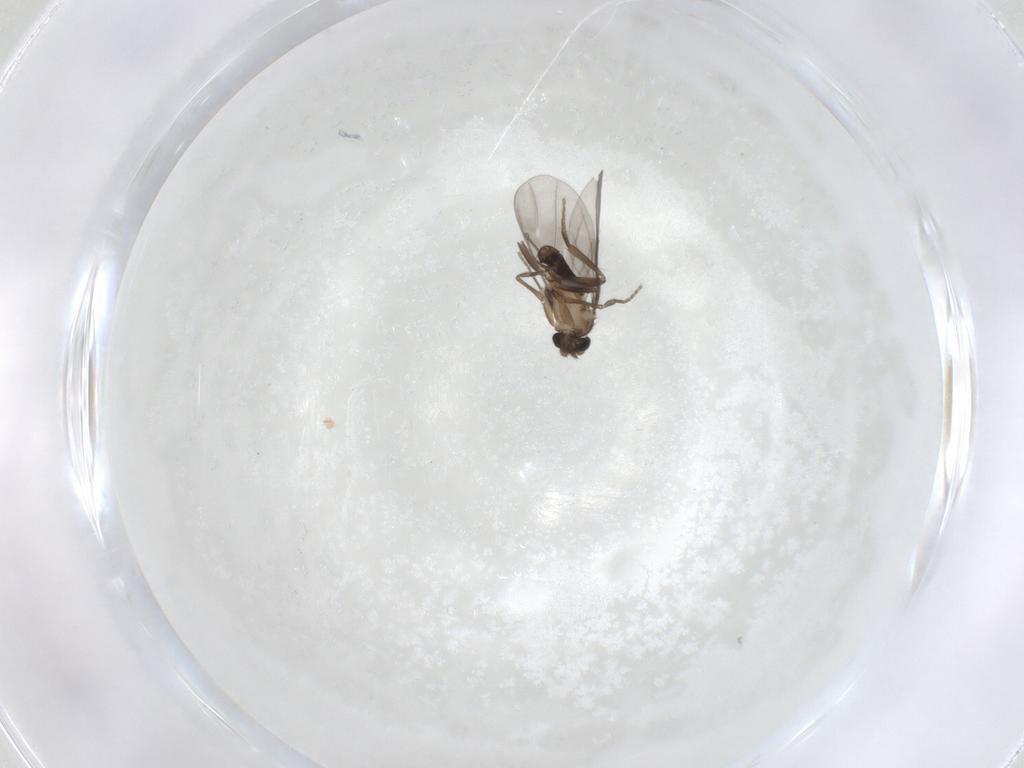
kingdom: Animalia
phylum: Arthropoda
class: Insecta
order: Diptera
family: Phoridae
